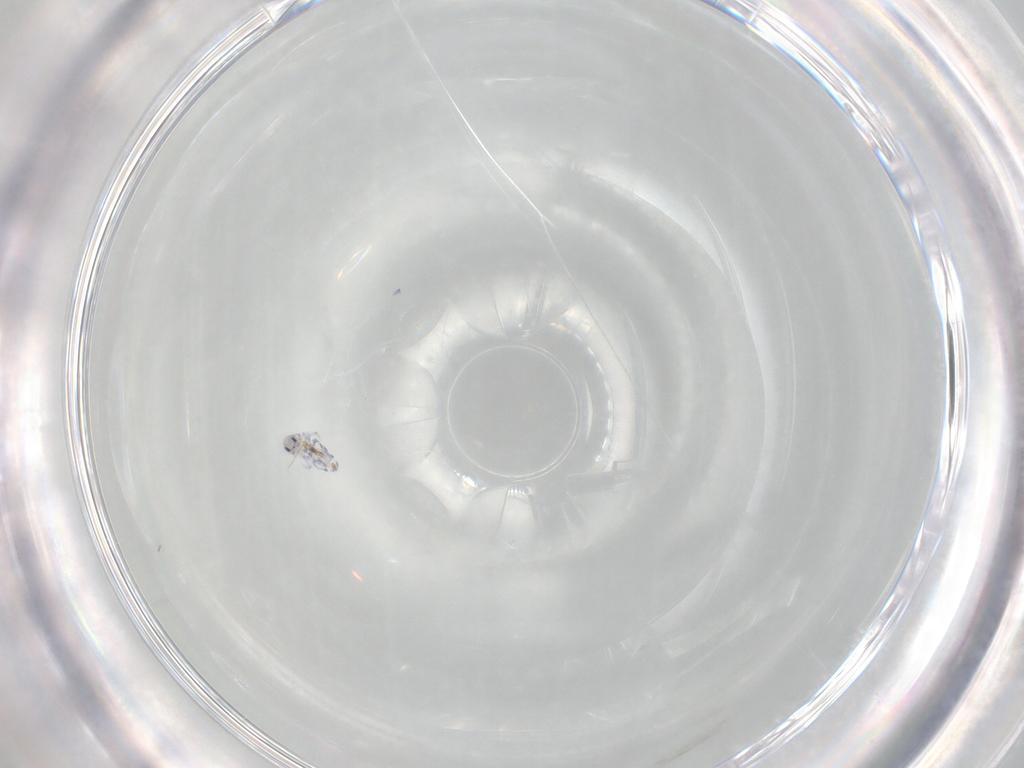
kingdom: Animalia
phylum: Arthropoda
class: Collembola
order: Entomobryomorpha
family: Entomobryidae
